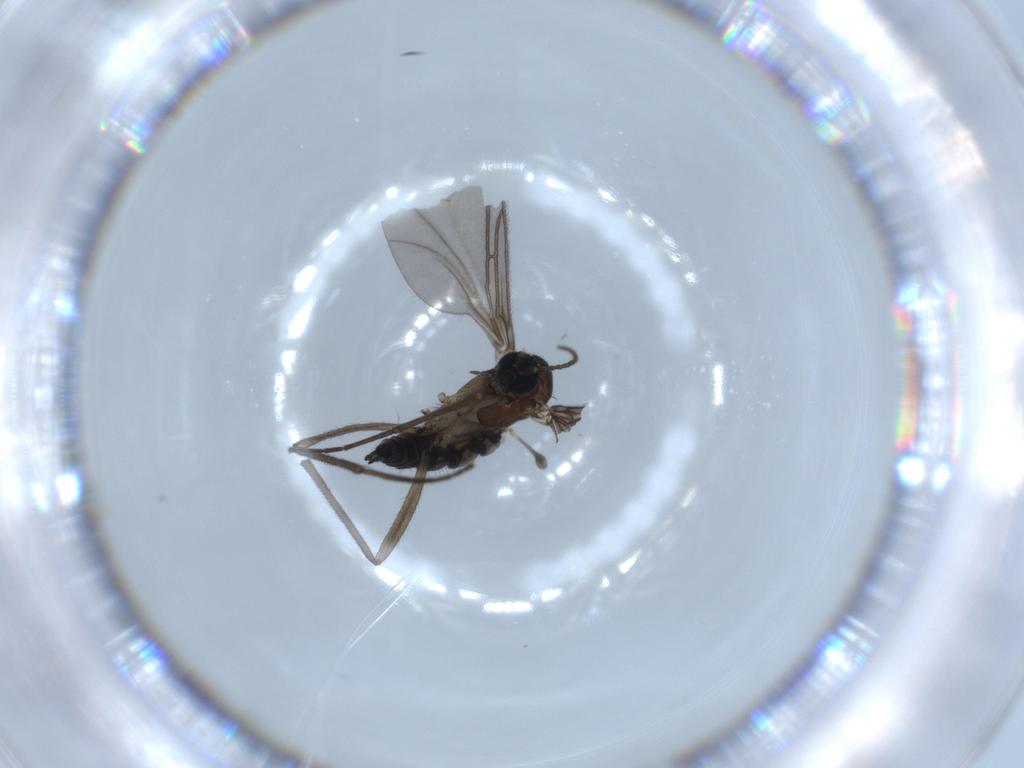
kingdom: Animalia
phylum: Arthropoda
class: Insecta
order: Diptera
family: Sciaridae
